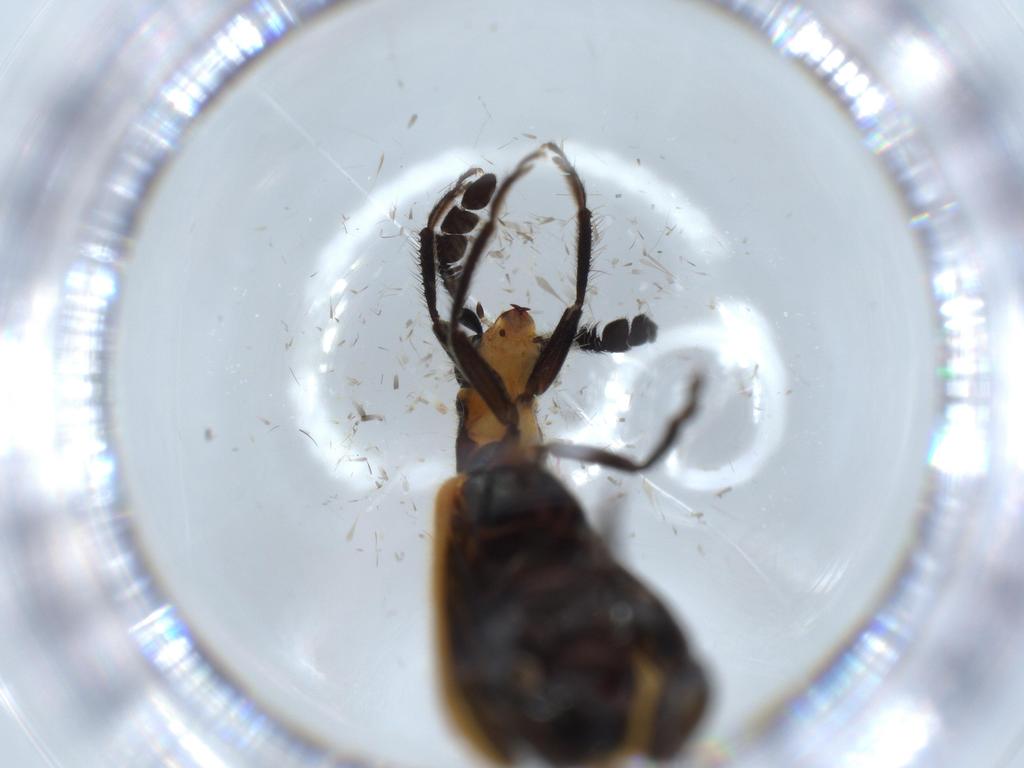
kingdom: Animalia
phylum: Arthropoda
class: Insecta
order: Coleoptera
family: Cleridae
